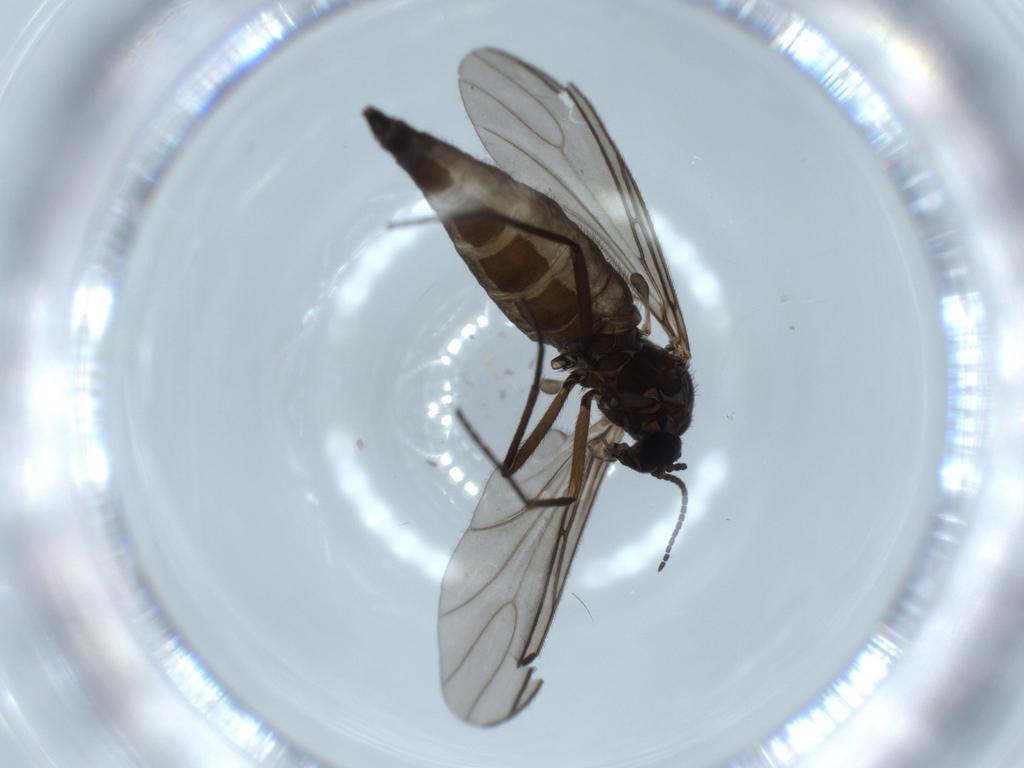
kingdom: Animalia
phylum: Arthropoda
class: Insecta
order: Diptera
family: Sciaridae
